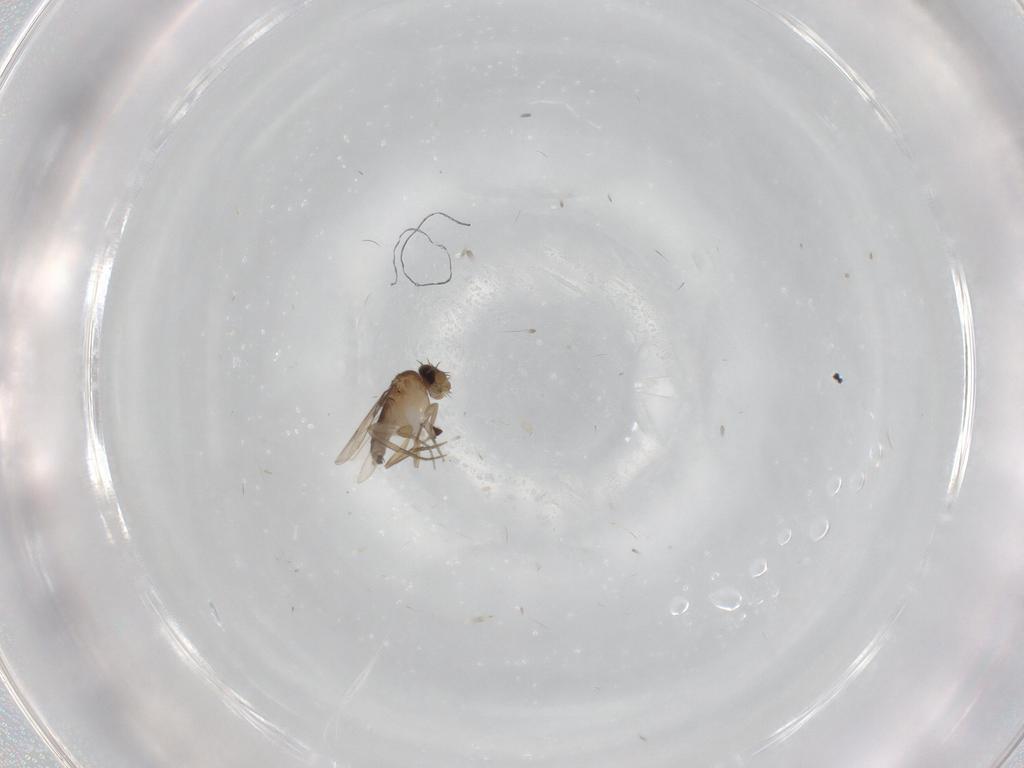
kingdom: Animalia
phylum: Arthropoda
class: Insecta
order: Diptera
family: Phoridae
